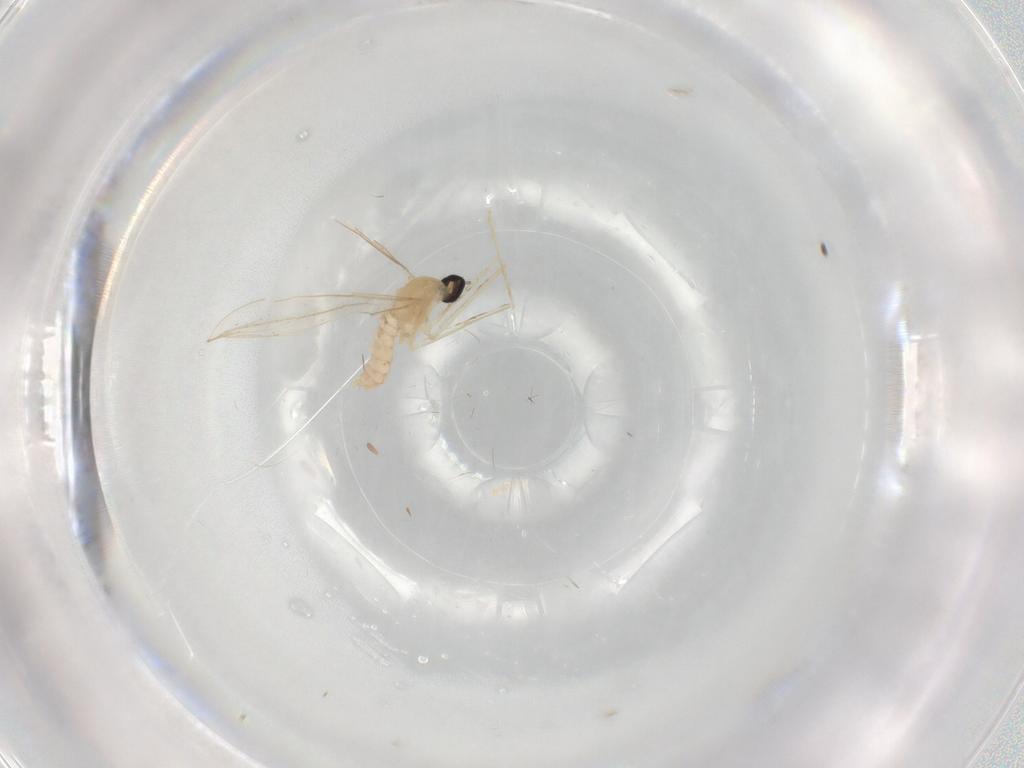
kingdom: Animalia
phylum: Arthropoda
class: Insecta
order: Diptera
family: Cecidomyiidae
